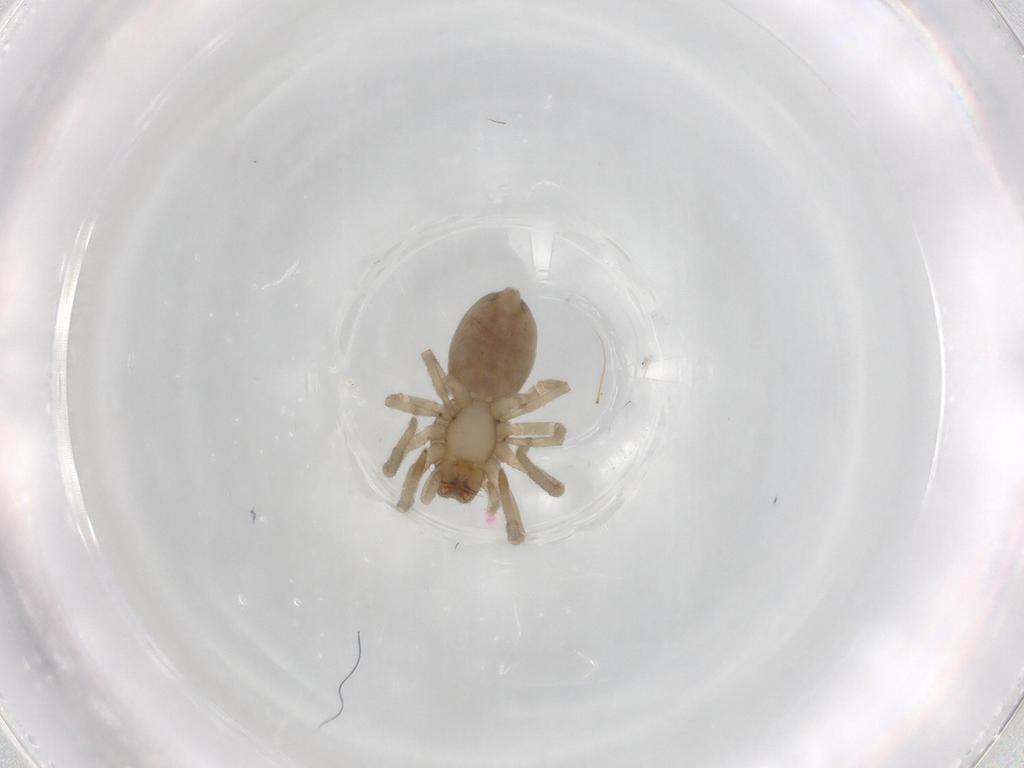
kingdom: Animalia
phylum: Arthropoda
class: Arachnida
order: Araneae
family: Trachelidae
